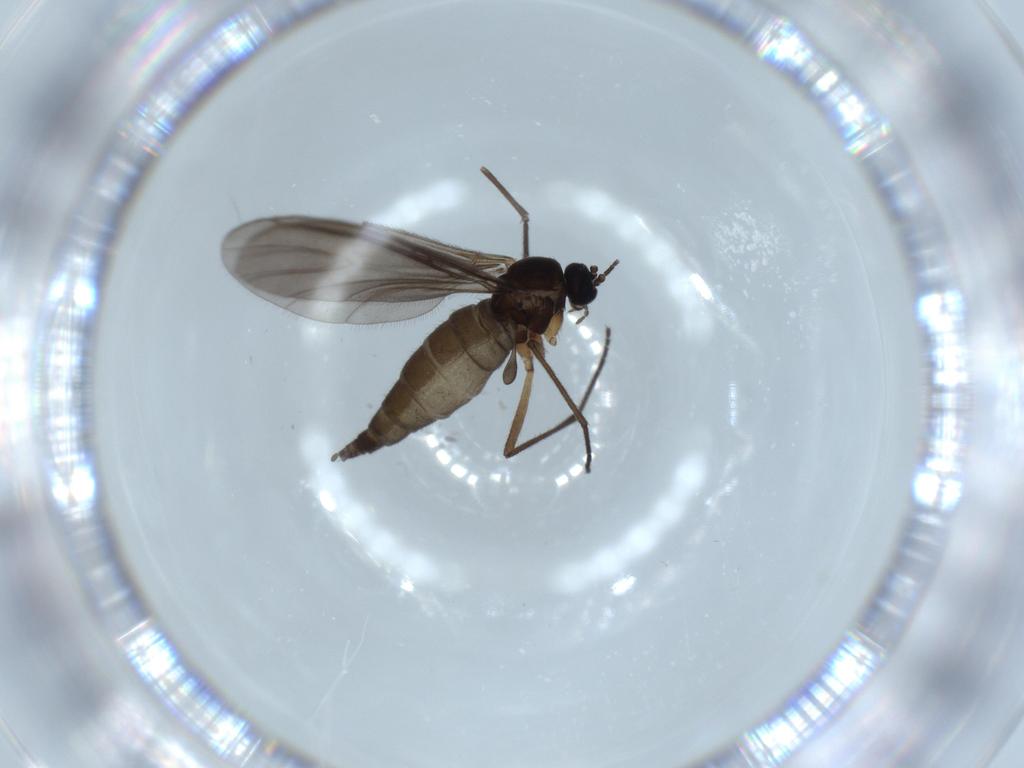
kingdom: Animalia
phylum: Arthropoda
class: Insecta
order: Diptera
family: Sciaridae
